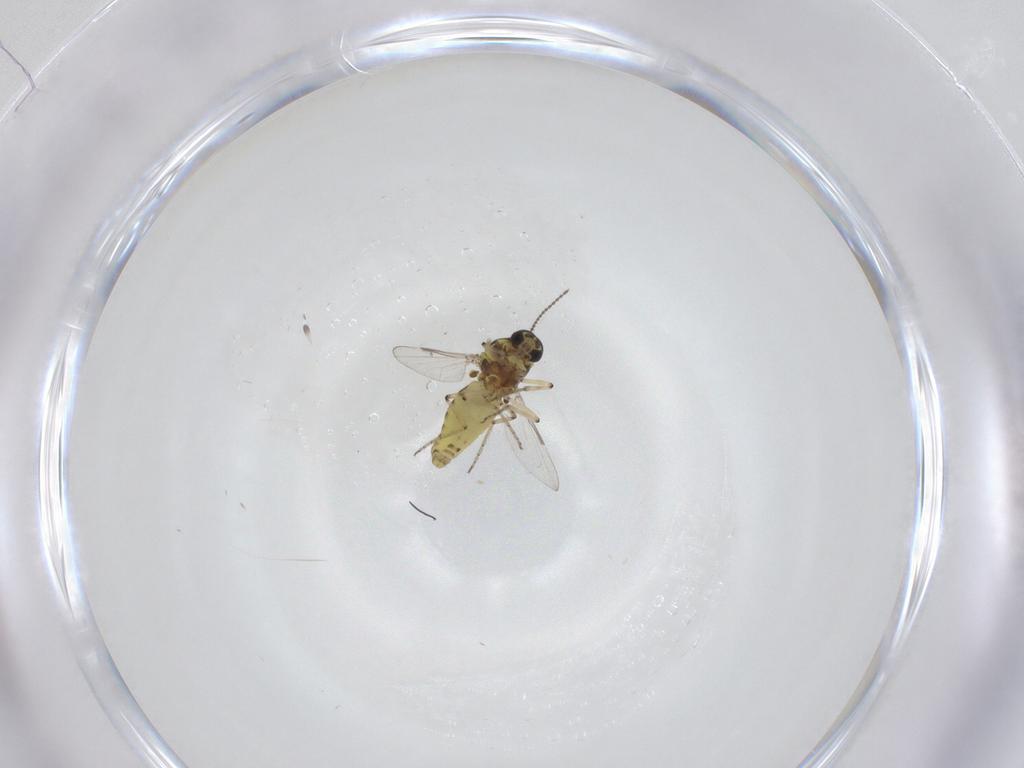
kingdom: Animalia
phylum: Arthropoda
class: Insecta
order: Diptera
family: Ceratopogonidae
